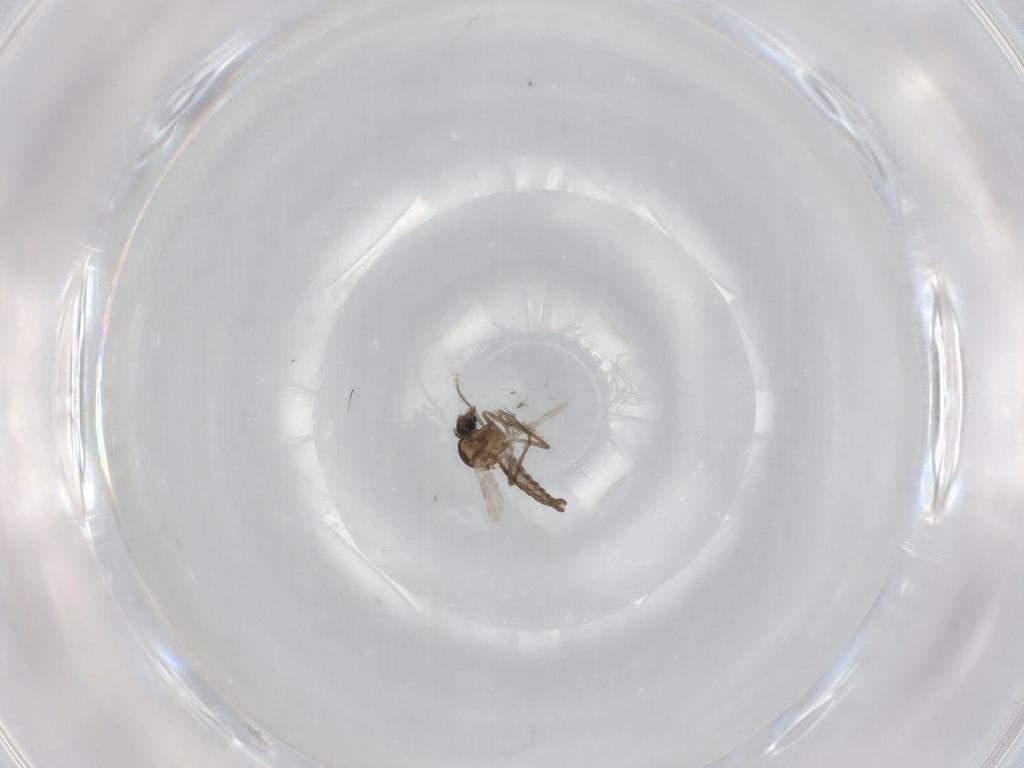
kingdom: Animalia
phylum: Arthropoda
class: Insecta
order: Diptera
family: Ceratopogonidae
